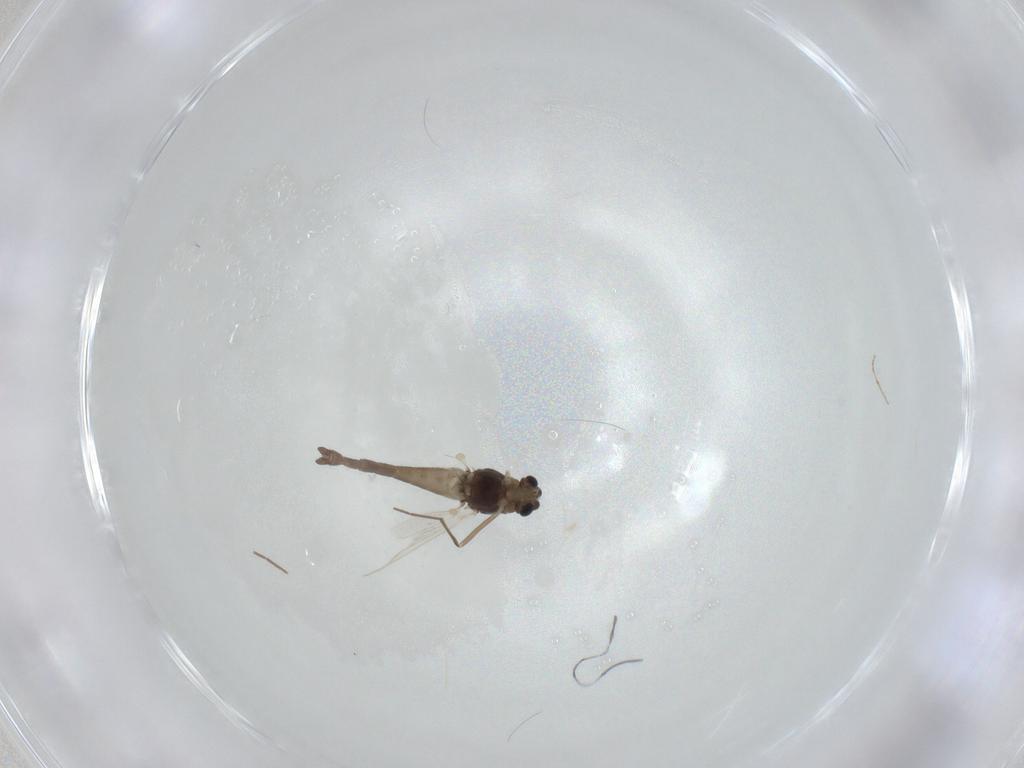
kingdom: Animalia
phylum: Arthropoda
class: Insecta
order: Diptera
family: Chironomidae
